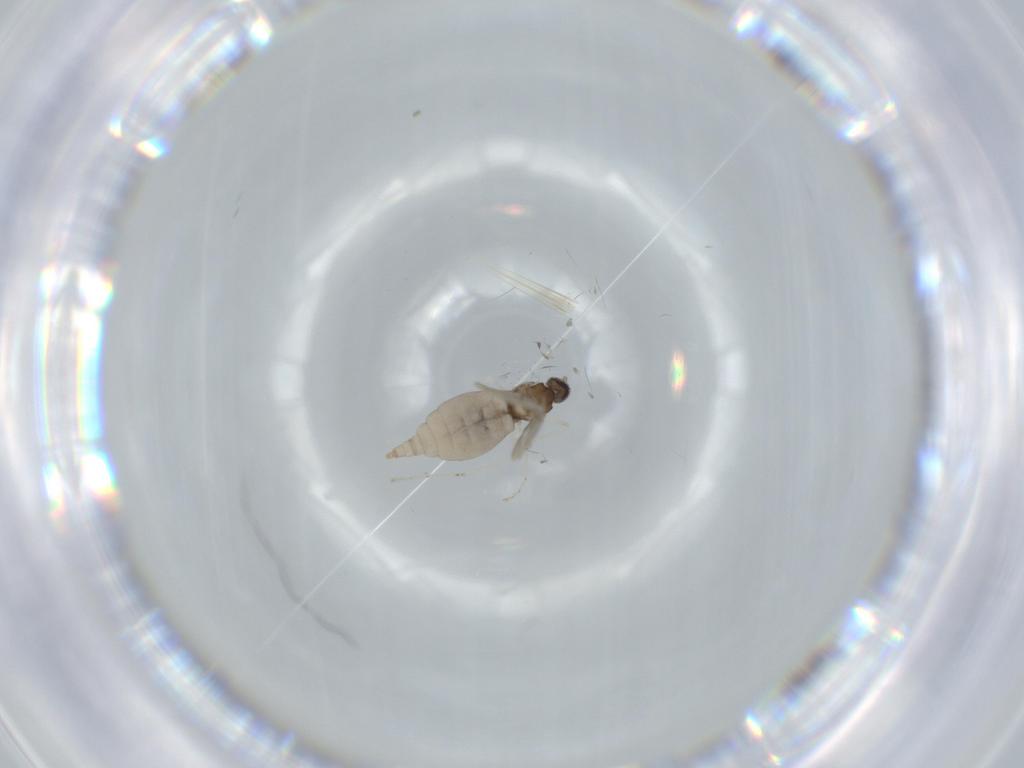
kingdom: Animalia
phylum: Arthropoda
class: Insecta
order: Diptera
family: Cecidomyiidae
